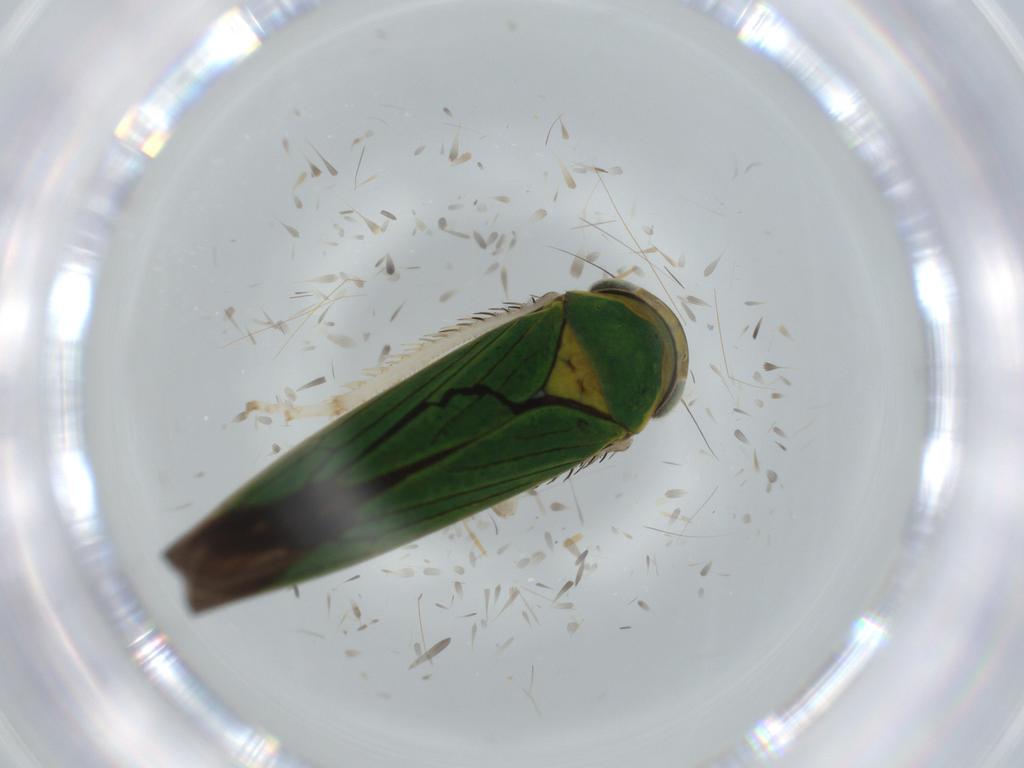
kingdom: Animalia
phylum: Arthropoda
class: Insecta
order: Hemiptera
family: Cicadellidae
